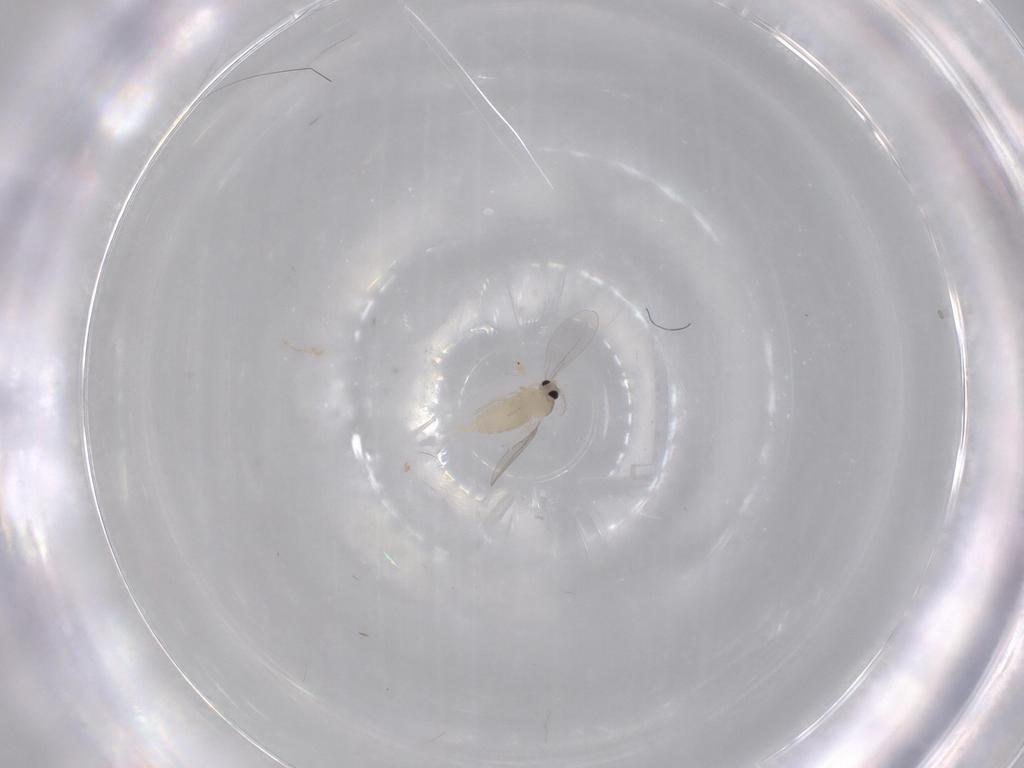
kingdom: Animalia
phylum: Arthropoda
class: Insecta
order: Diptera
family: Cecidomyiidae
